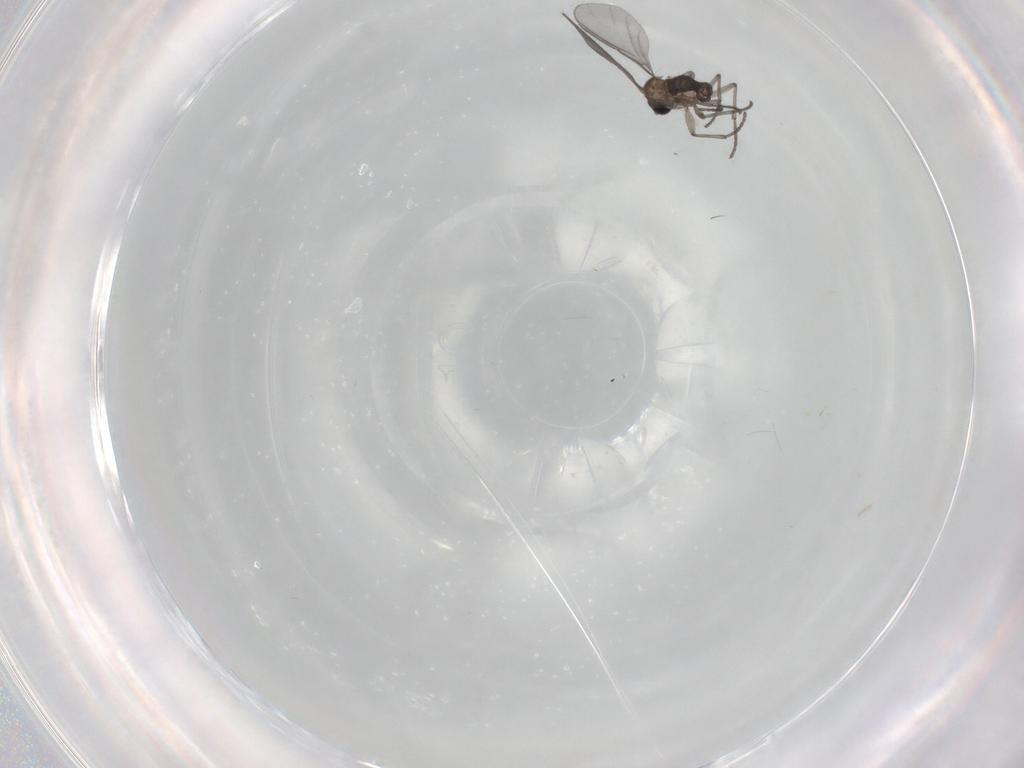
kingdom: Animalia
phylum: Arthropoda
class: Insecta
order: Diptera
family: Sciaridae
